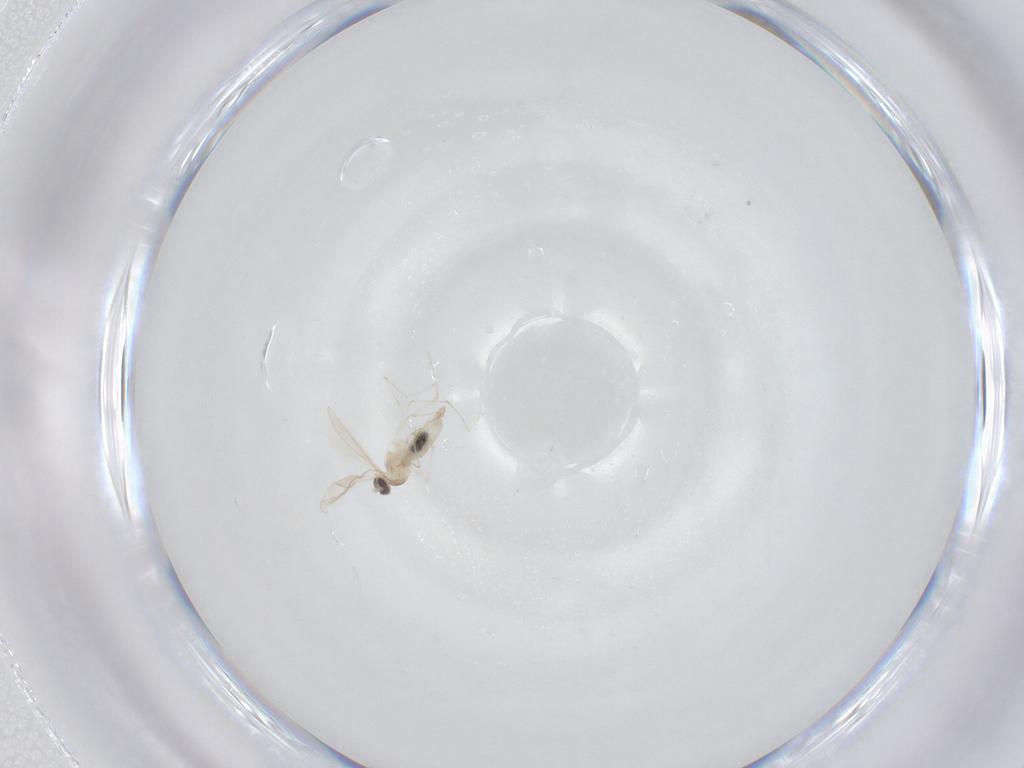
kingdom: Animalia
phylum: Arthropoda
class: Insecta
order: Diptera
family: Cecidomyiidae
